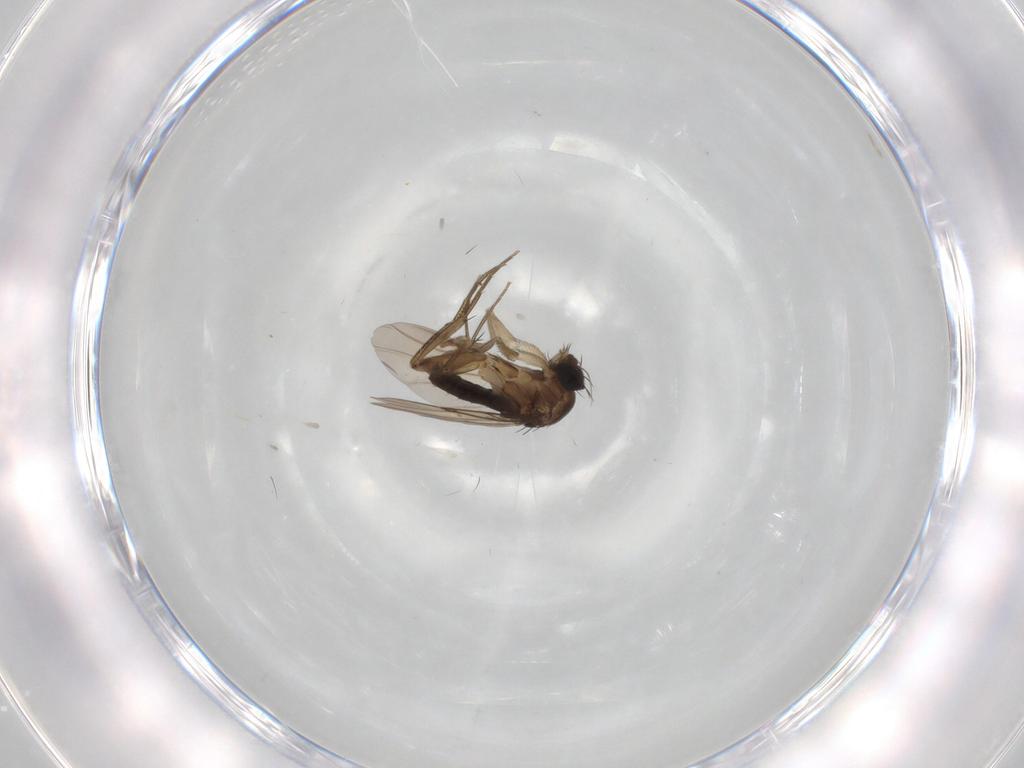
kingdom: Animalia
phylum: Arthropoda
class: Insecta
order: Diptera
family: Phoridae
